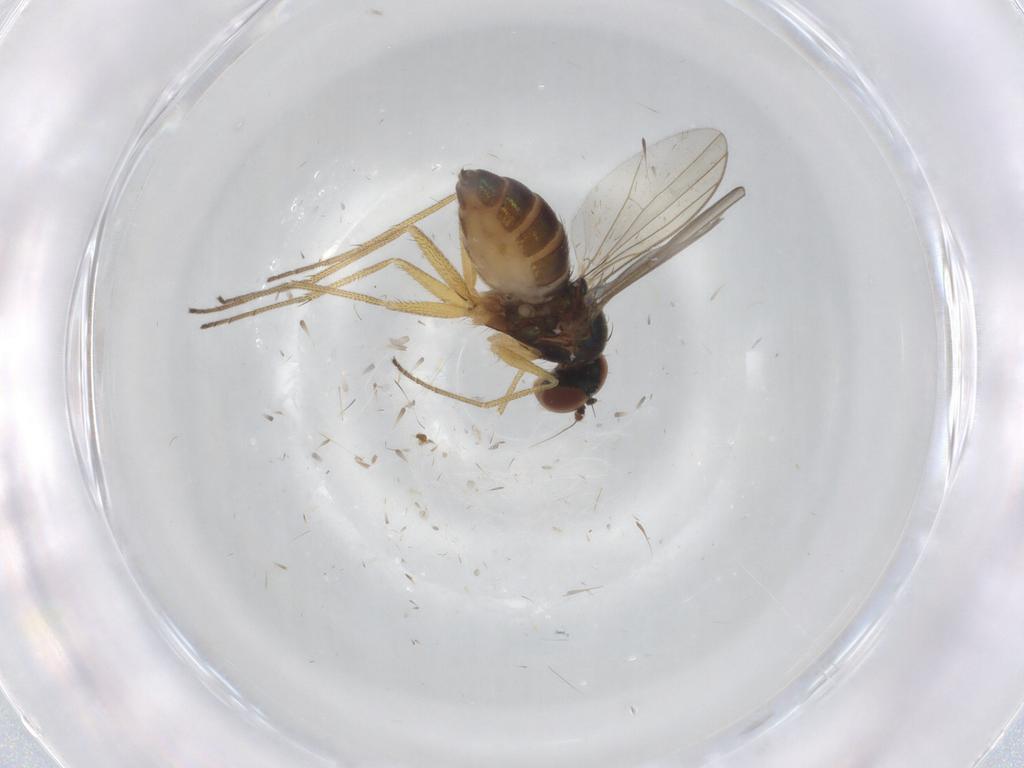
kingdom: Animalia
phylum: Arthropoda
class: Insecta
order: Diptera
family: Dolichopodidae
